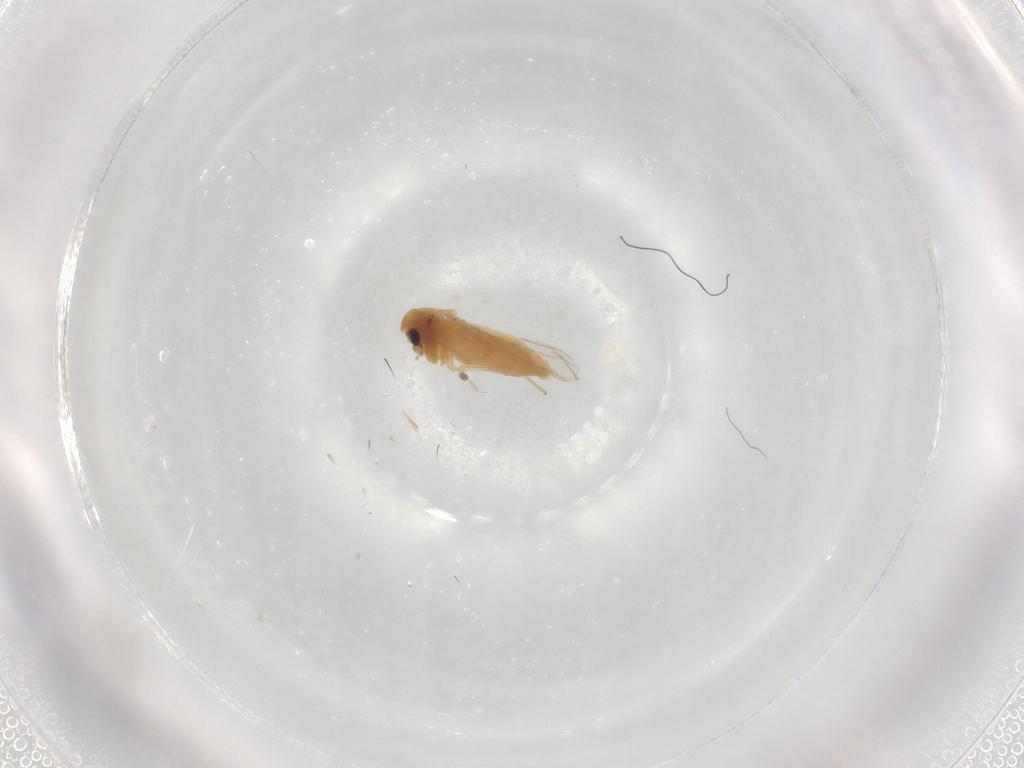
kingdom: Animalia
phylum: Arthropoda
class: Insecta
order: Diptera
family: Chironomidae
